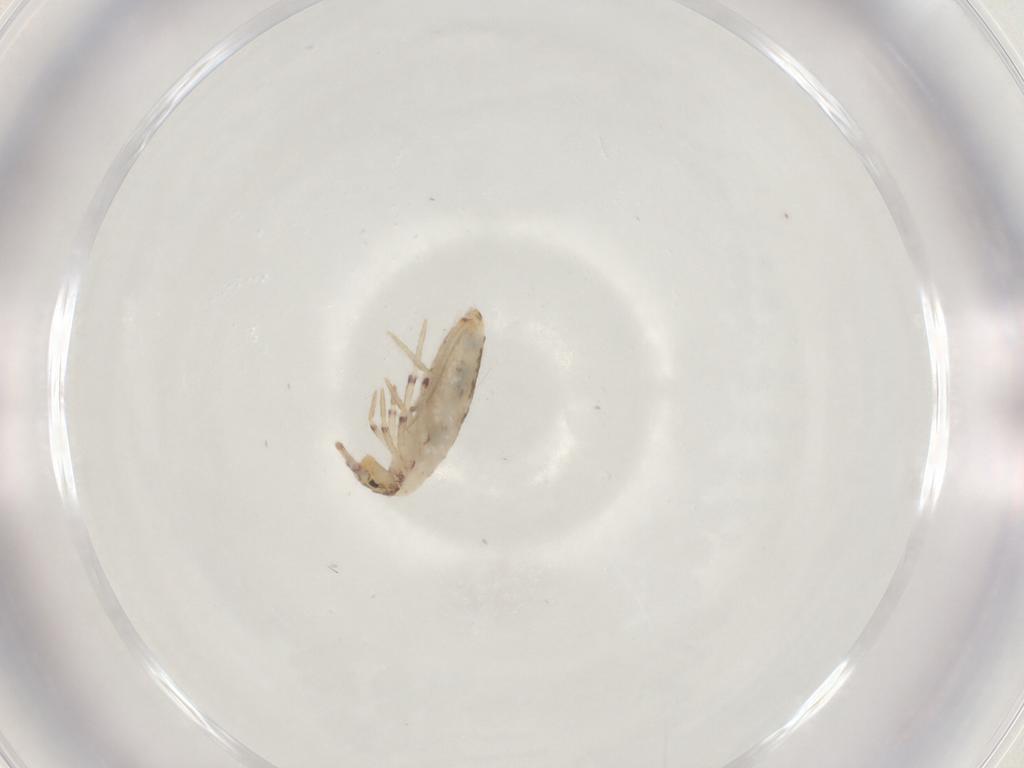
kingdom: Animalia
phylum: Arthropoda
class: Collembola
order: Entomobryomorpha
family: Entomobryidae
